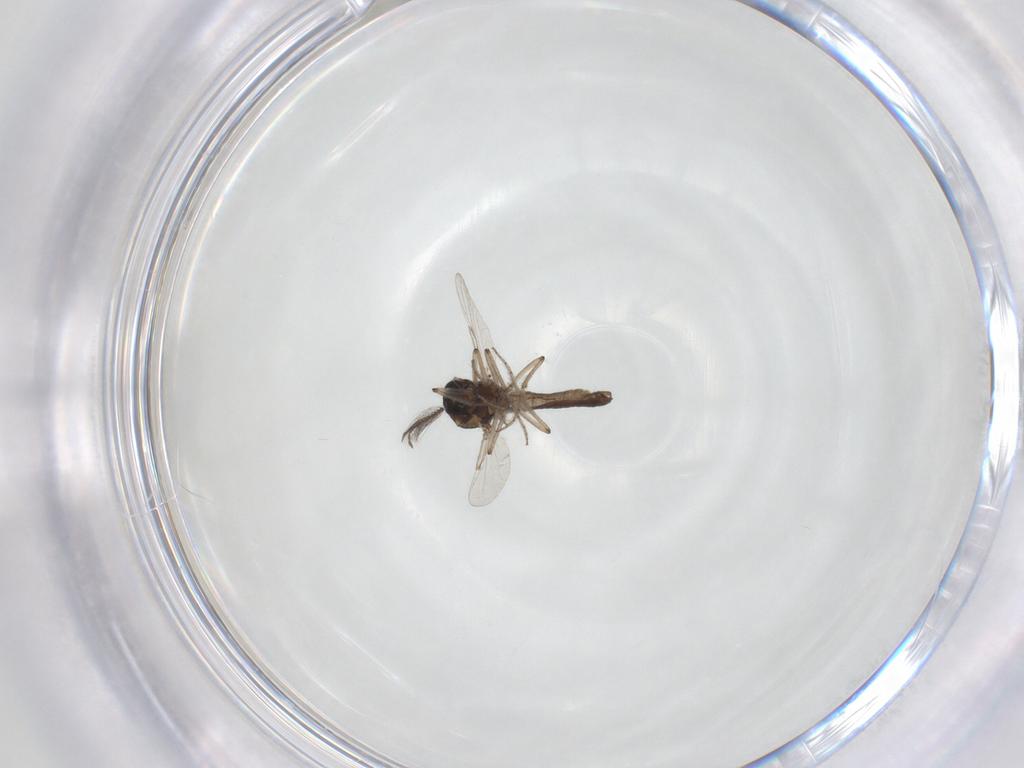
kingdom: Animalia
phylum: Arthropoda
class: Insecta
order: Diptera
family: Ceratopogonidae
